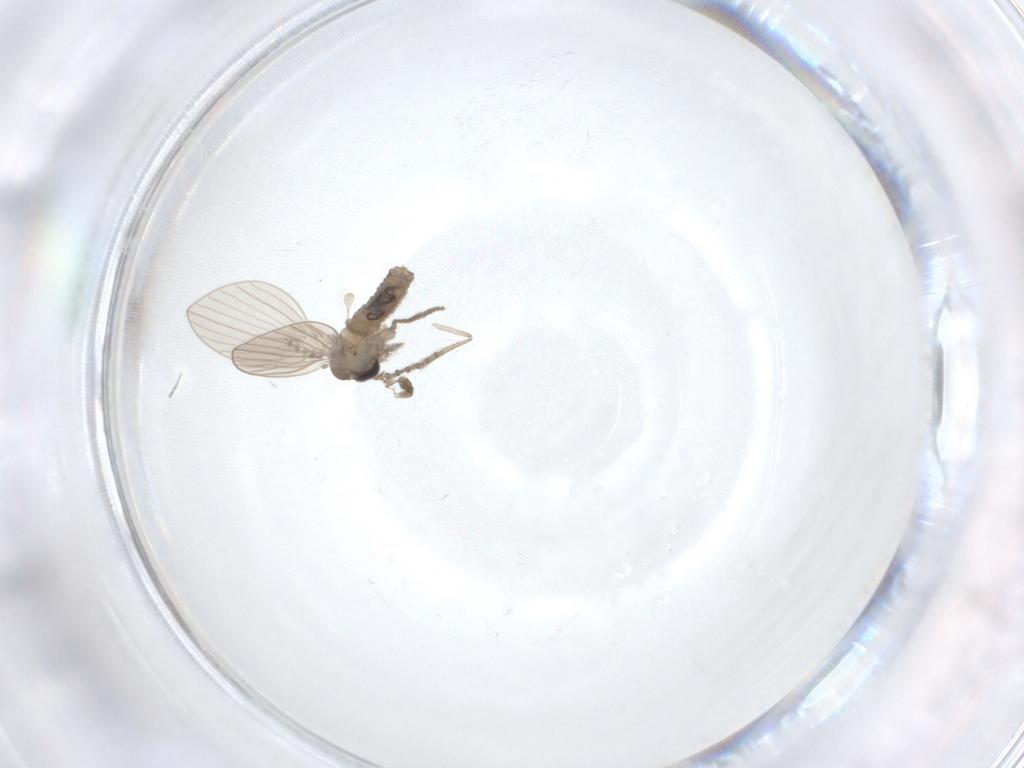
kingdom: Animalia
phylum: Arthropoda
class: Insecta
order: Diptera
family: Psychodidae
